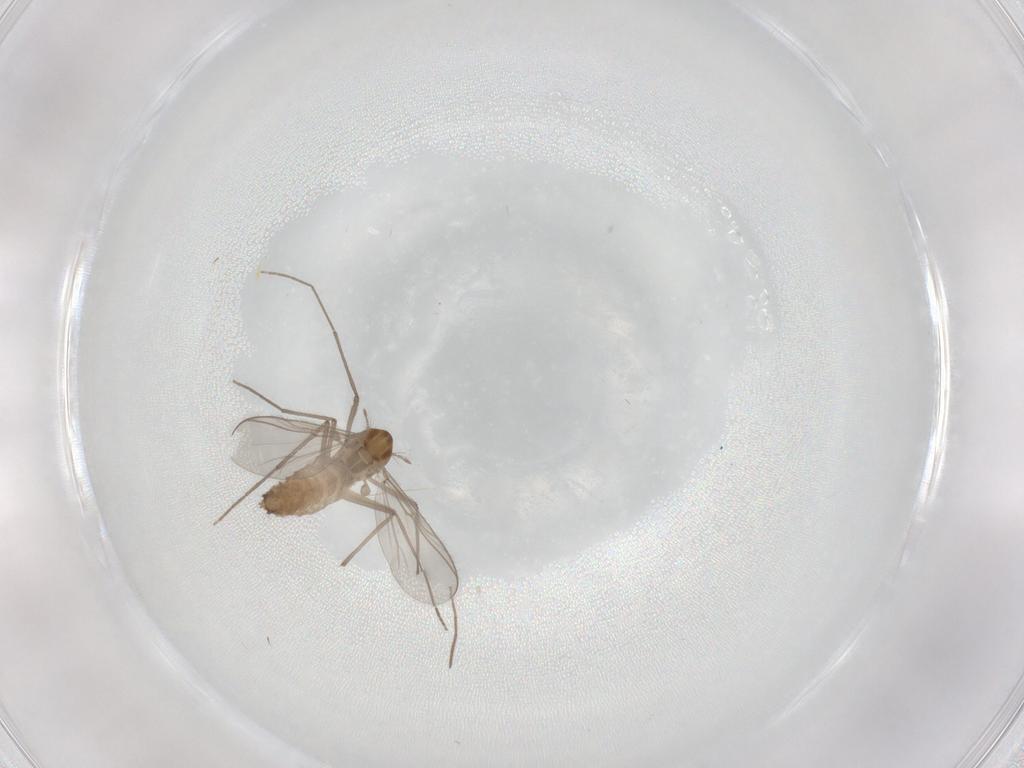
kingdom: Animalia
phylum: Arthropoda
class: Insecta
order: Diptera
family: Chironomidae
